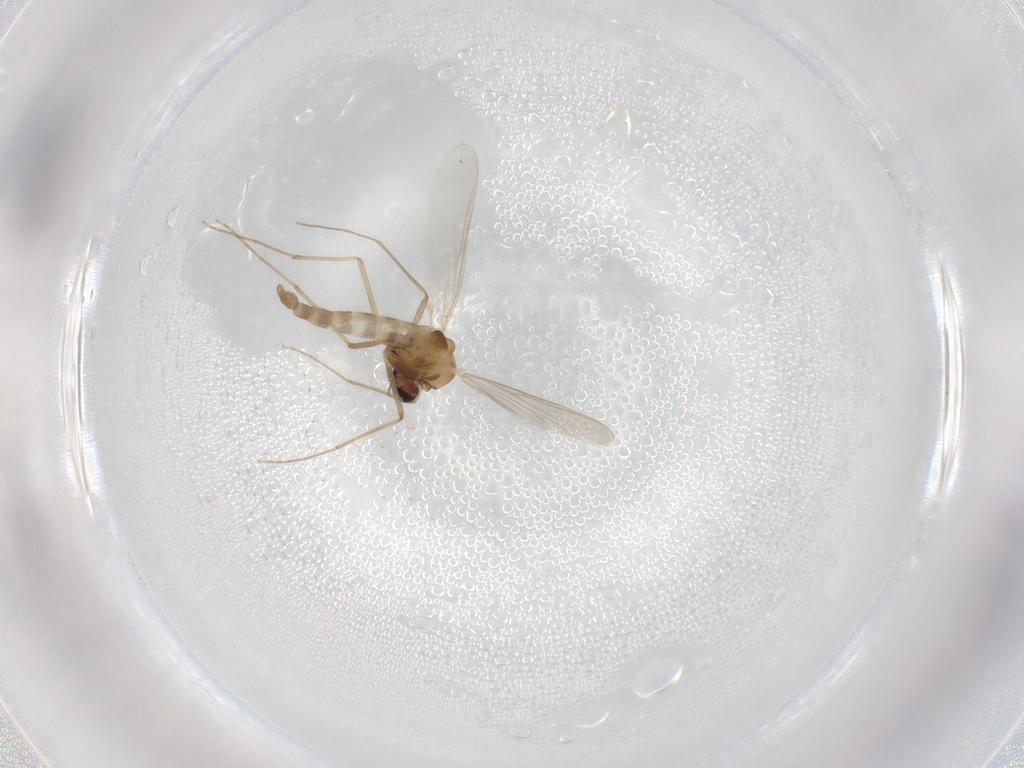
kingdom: Animalia
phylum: Arthropoda
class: Insecta
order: Diptera
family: Chironomidae
